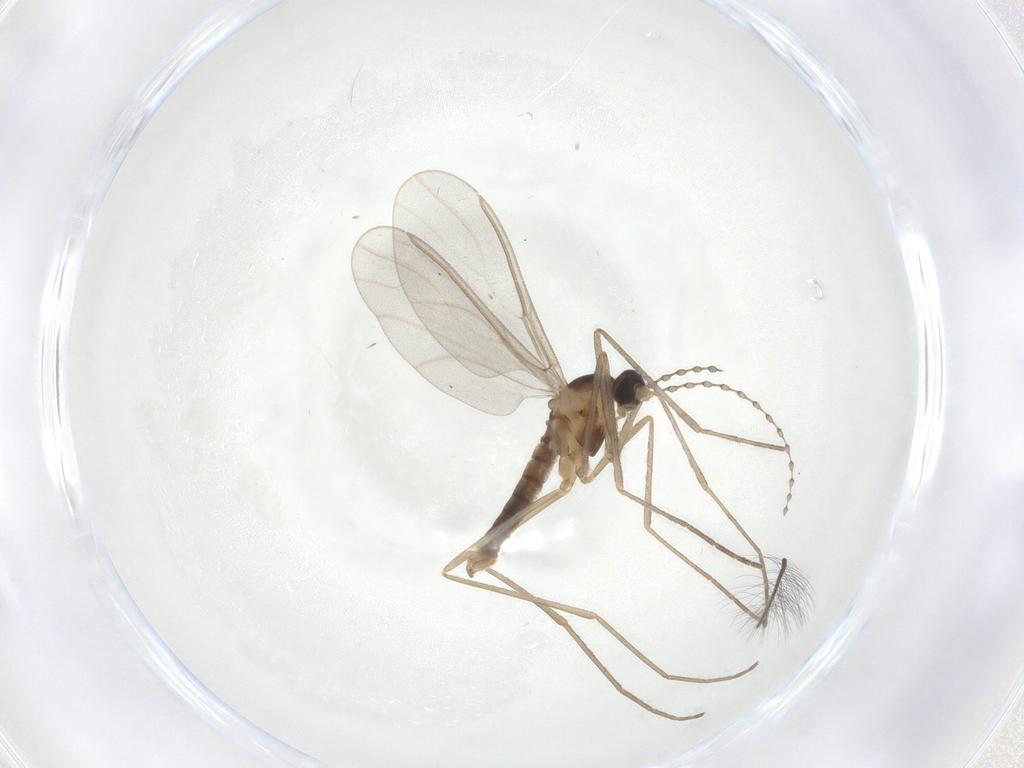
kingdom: Animalia
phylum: Arthropoda
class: Insecta
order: Diptera
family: Cecidomyiidae
